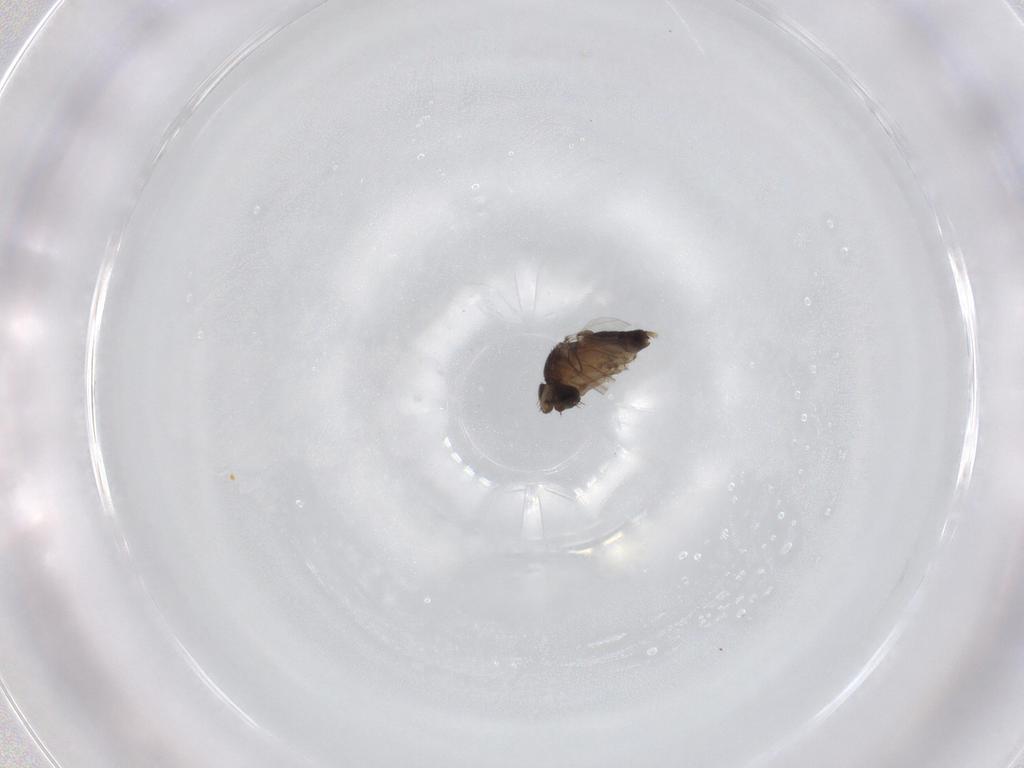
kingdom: Animalia
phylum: Arthropoda
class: Insecta
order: Diptera
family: Phoridae
